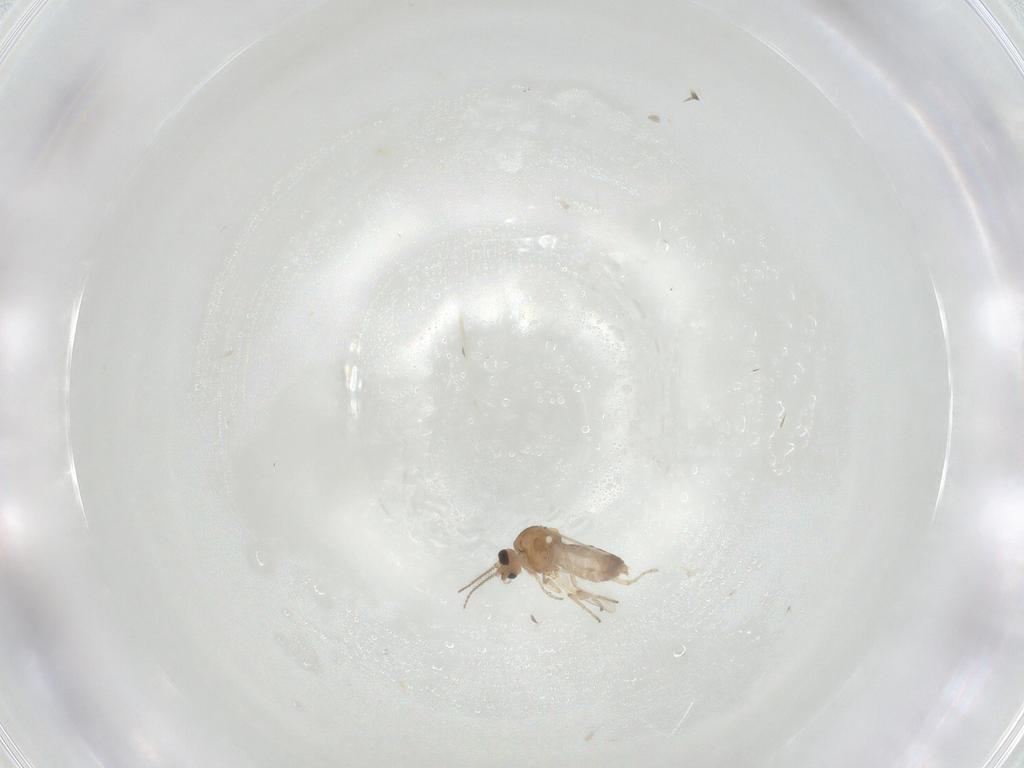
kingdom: Animalia
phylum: Arthropoda
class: Insecta
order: Diptera
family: Ceratopogonidae
